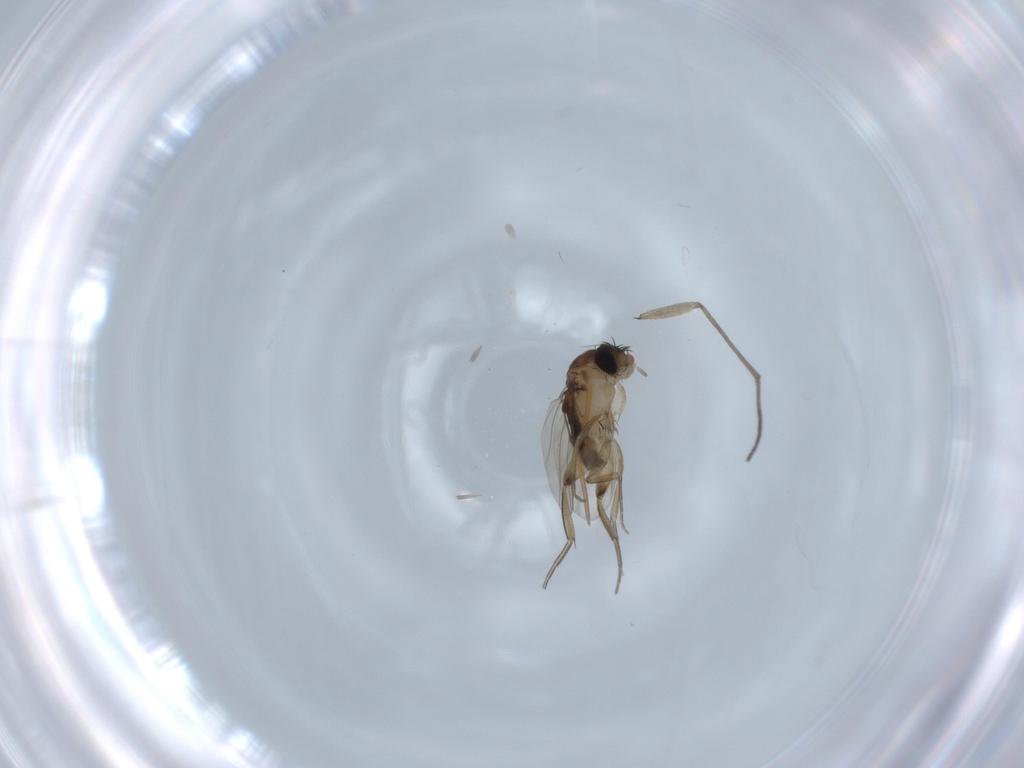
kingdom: Animalia
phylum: Arthropoda
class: Insecta
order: Diptera
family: Phoridae
